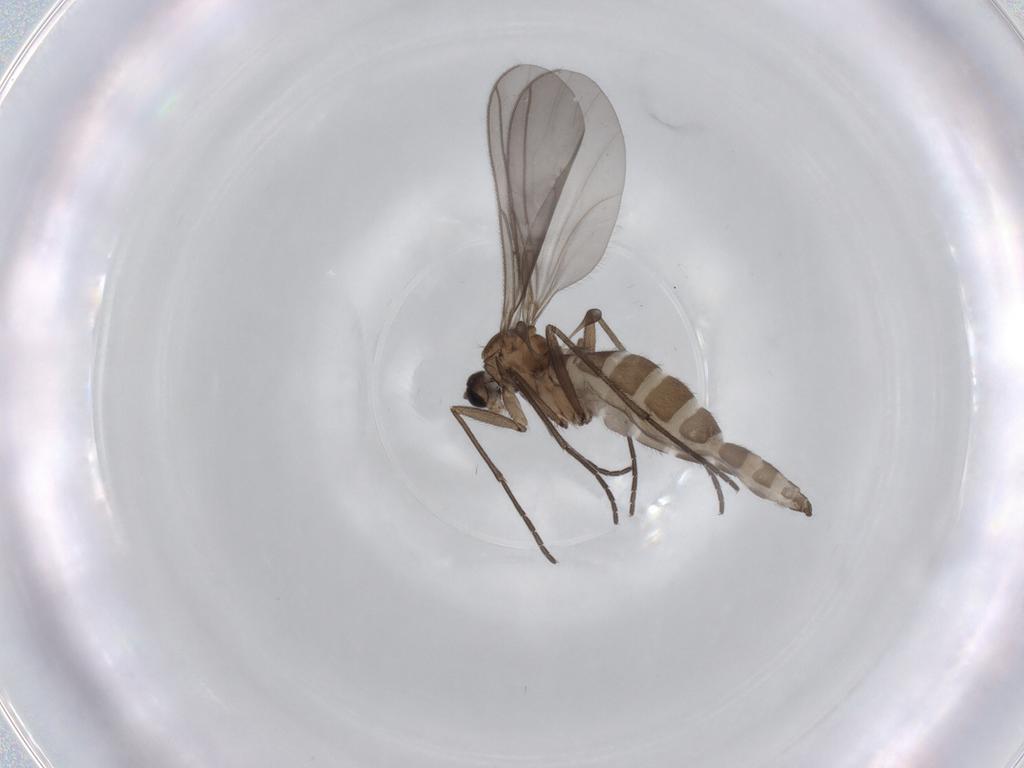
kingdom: Animalia
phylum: Arthropoda
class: Insecta
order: Diptera
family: Sciaridae
